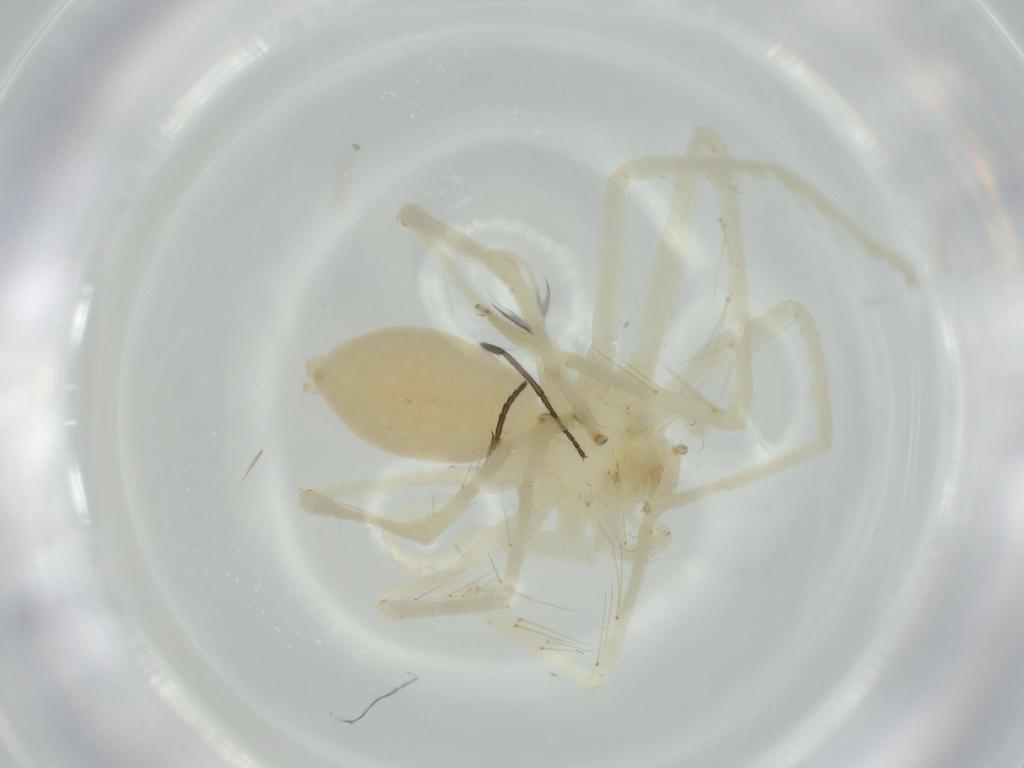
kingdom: Animalia
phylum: Arthropoda
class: Arachnida
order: Araneae
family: Sparassidae
